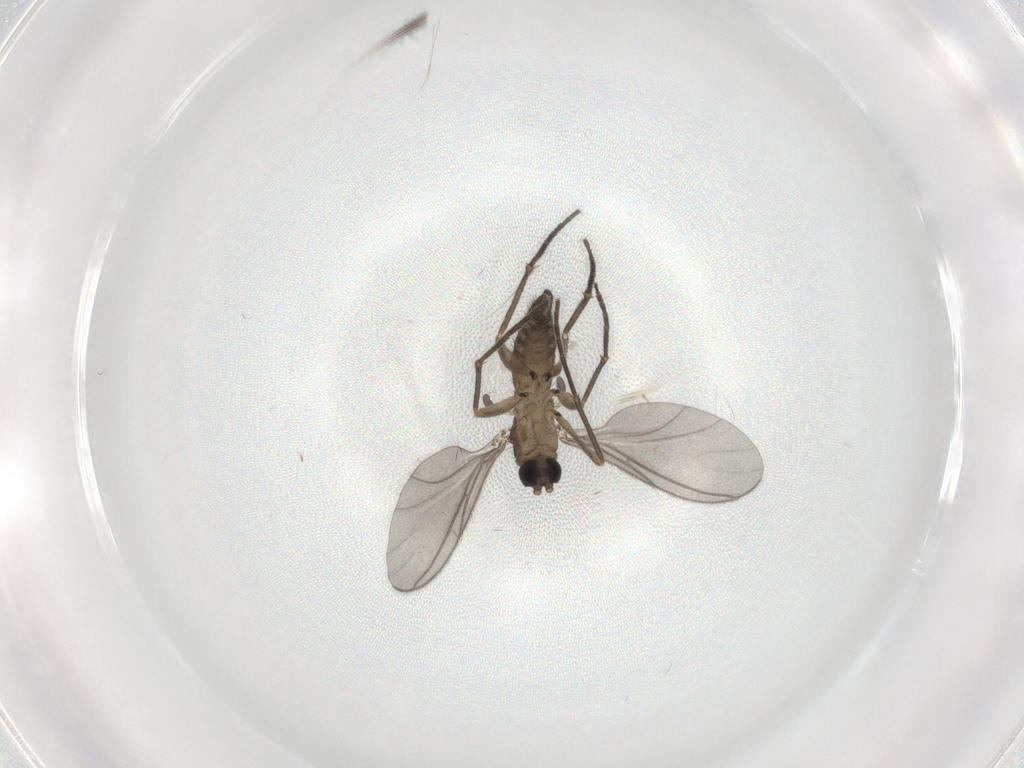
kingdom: Animalia
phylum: Arthropoda
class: Insecta
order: Diptera
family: Sciaridae
